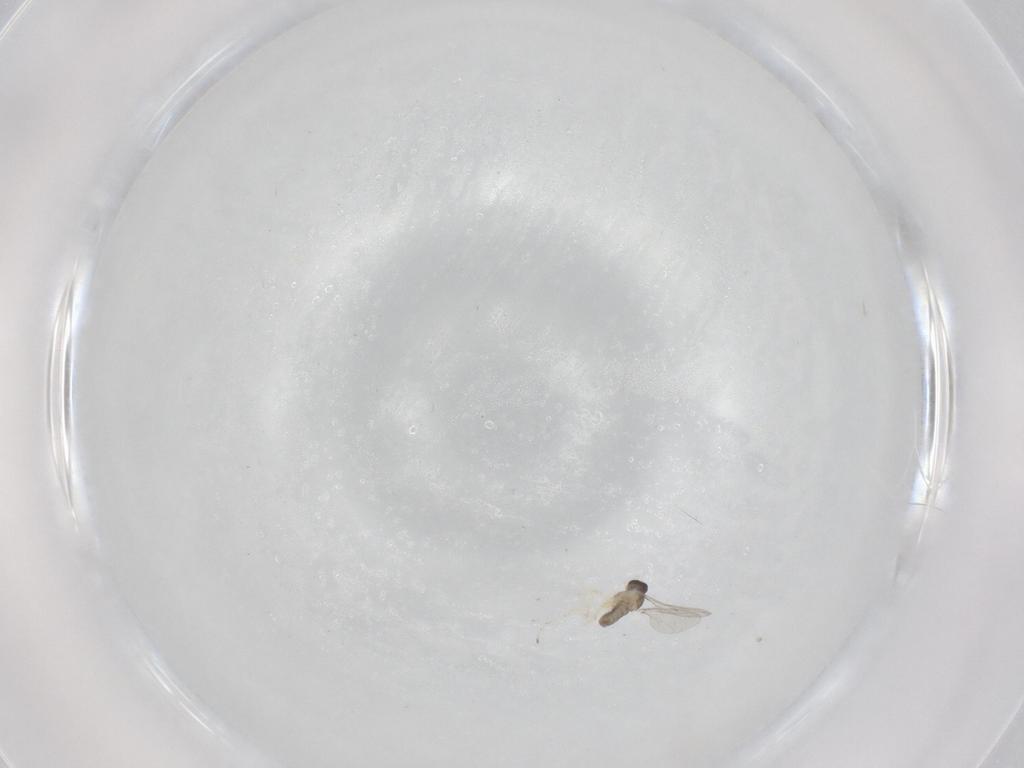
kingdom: Animalia
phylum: Arthropoda
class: Insecta
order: Diptera
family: Cecidomyiidae
